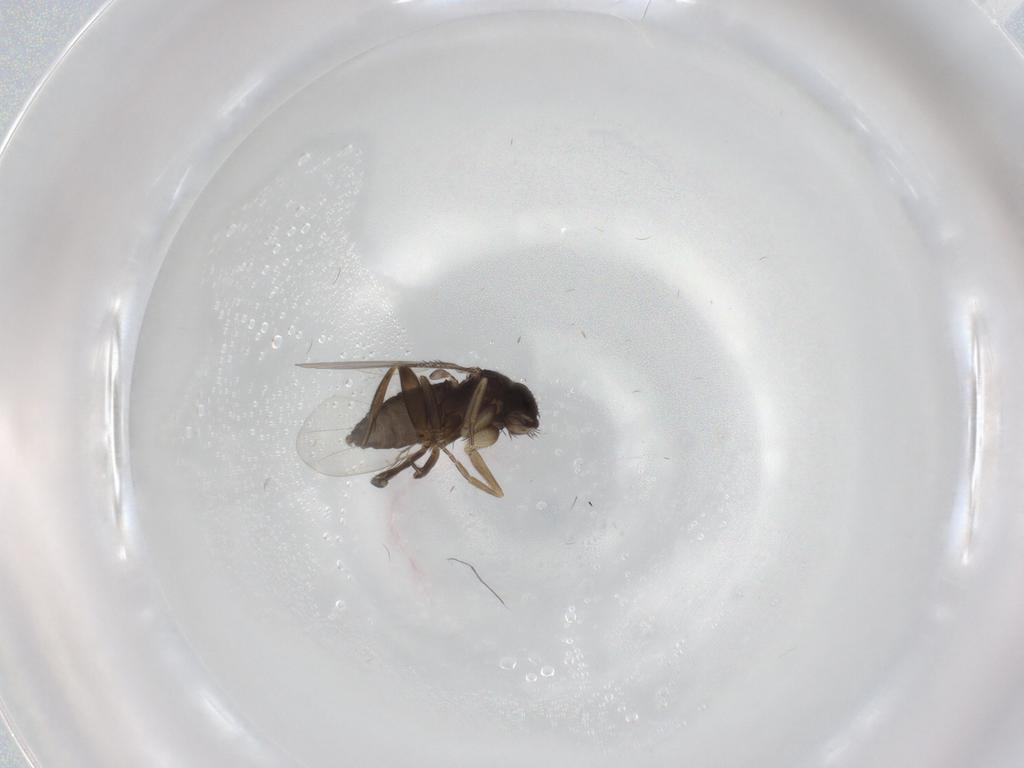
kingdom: Animalia
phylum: Arthropoda
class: Insecta
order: Diptera
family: Phoridae
